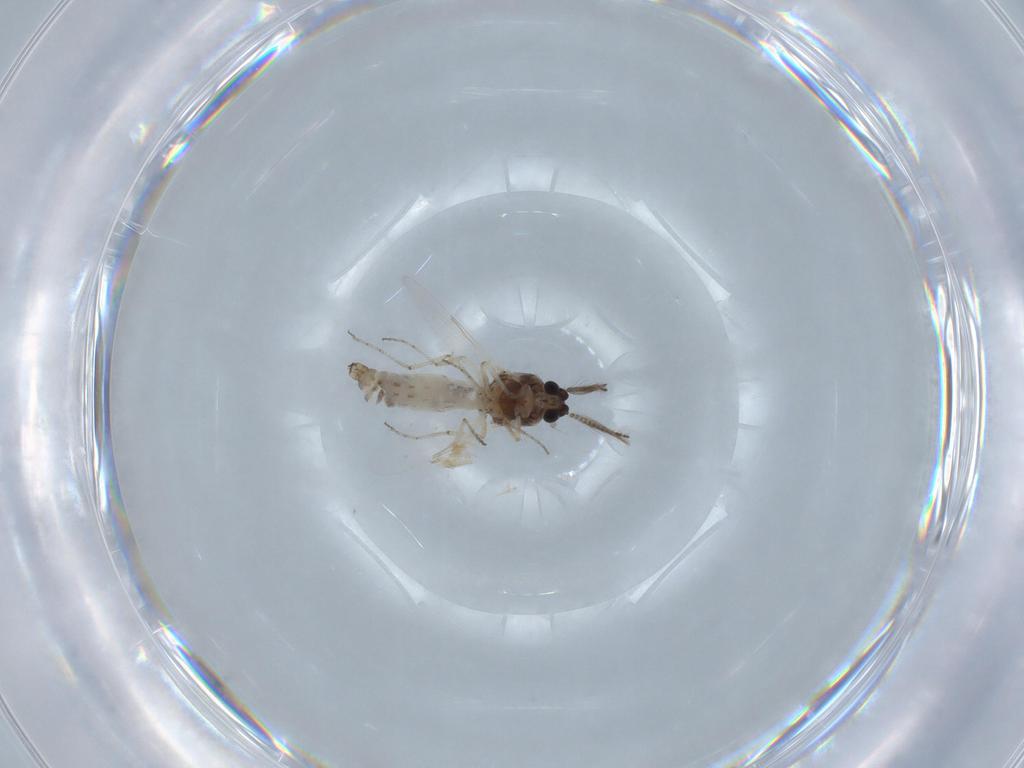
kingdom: Animalia
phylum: Arthropoda
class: Insecta
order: Diptera
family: Ceratopogonidae
